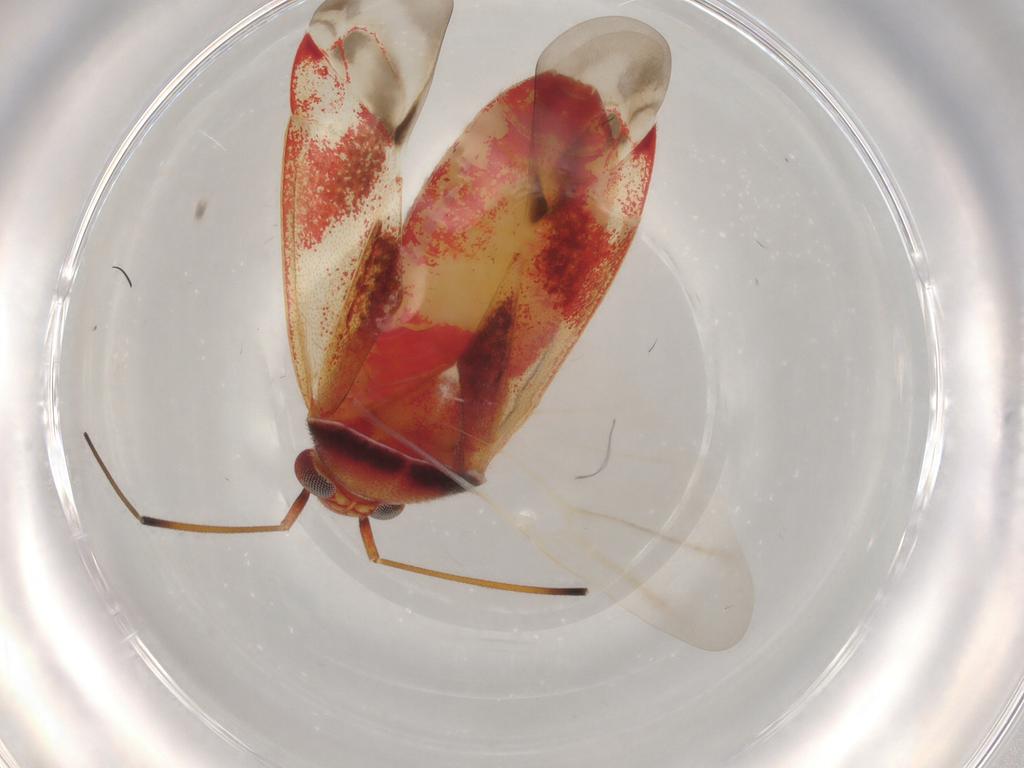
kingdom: Animalia
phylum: Arthropoda
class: Insecta
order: Hemiptera
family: Miridae
